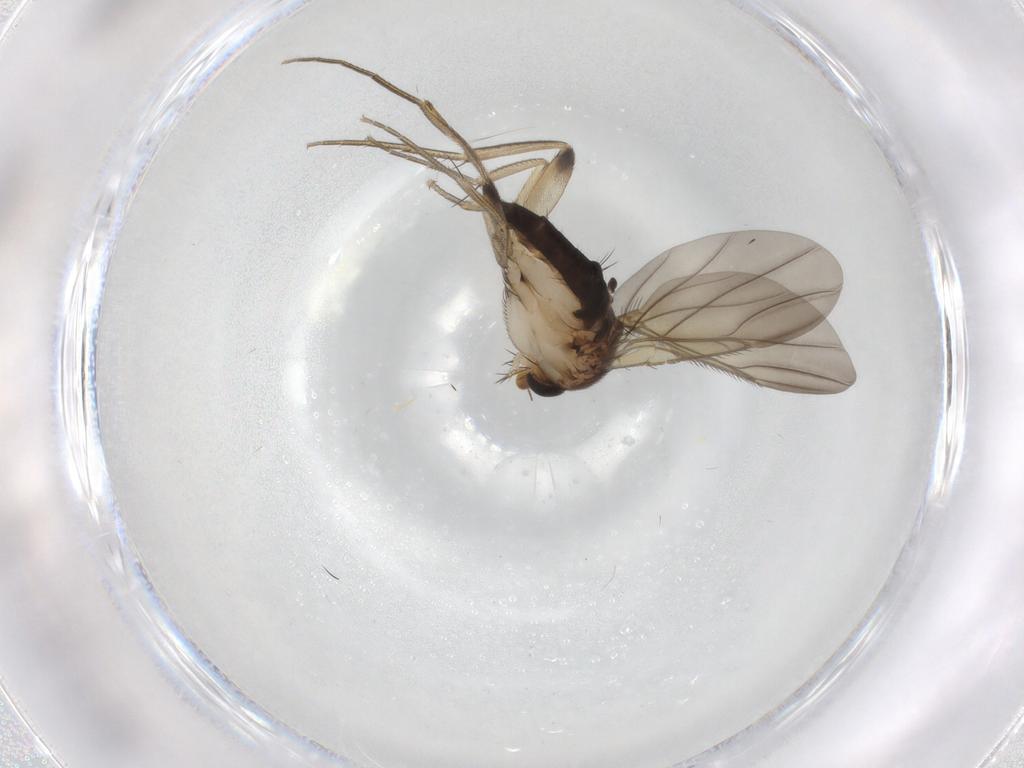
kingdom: Animalia
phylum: Arthropoda
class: Insecta
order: Diptera
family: Phoridae
